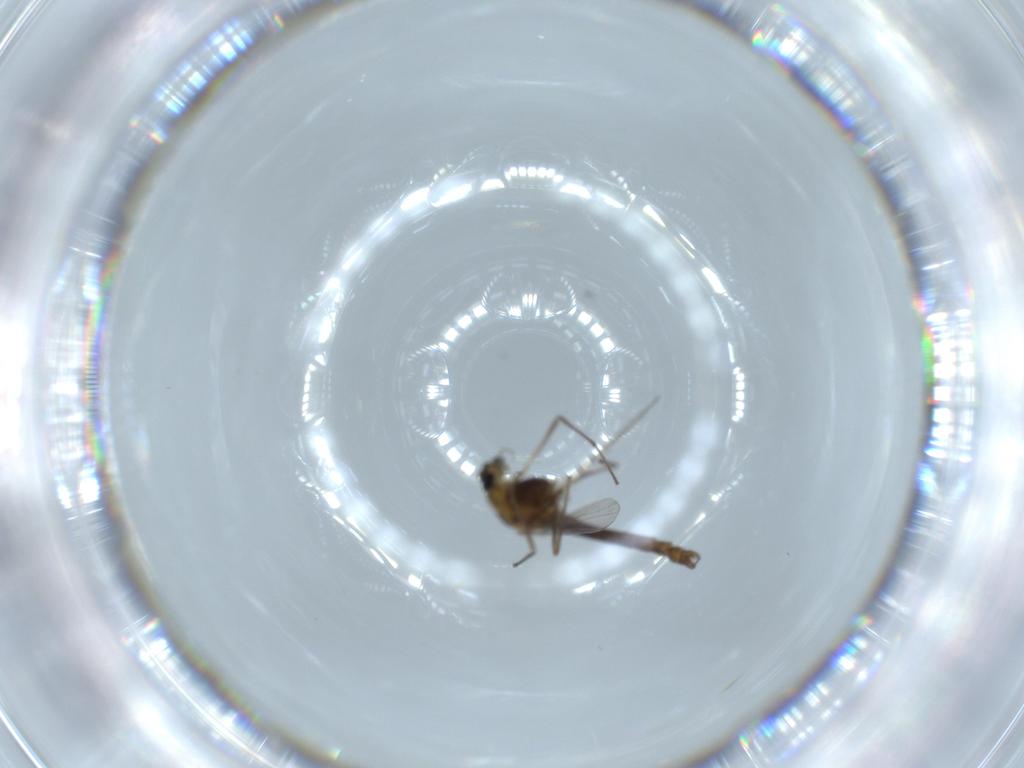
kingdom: Animalia
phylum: Arthropoda
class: Insecta
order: Diptera
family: Chironomidae
